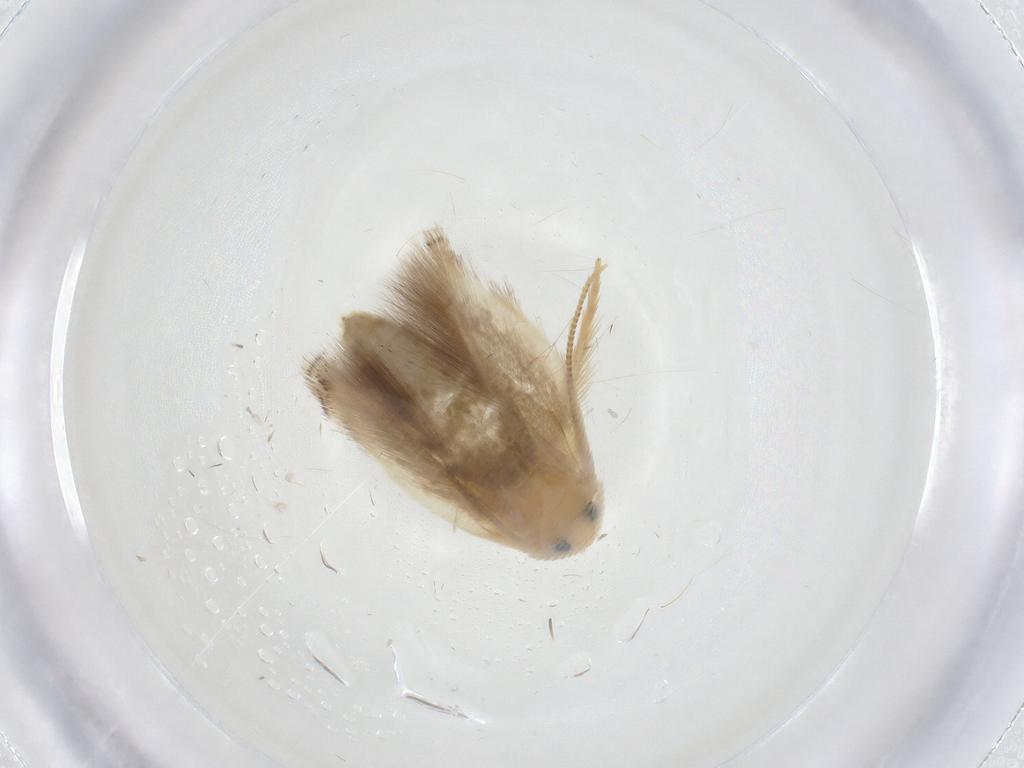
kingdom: Animalia
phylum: Arthropoda
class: Insecta
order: Lepidoptera
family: Opostegidae
